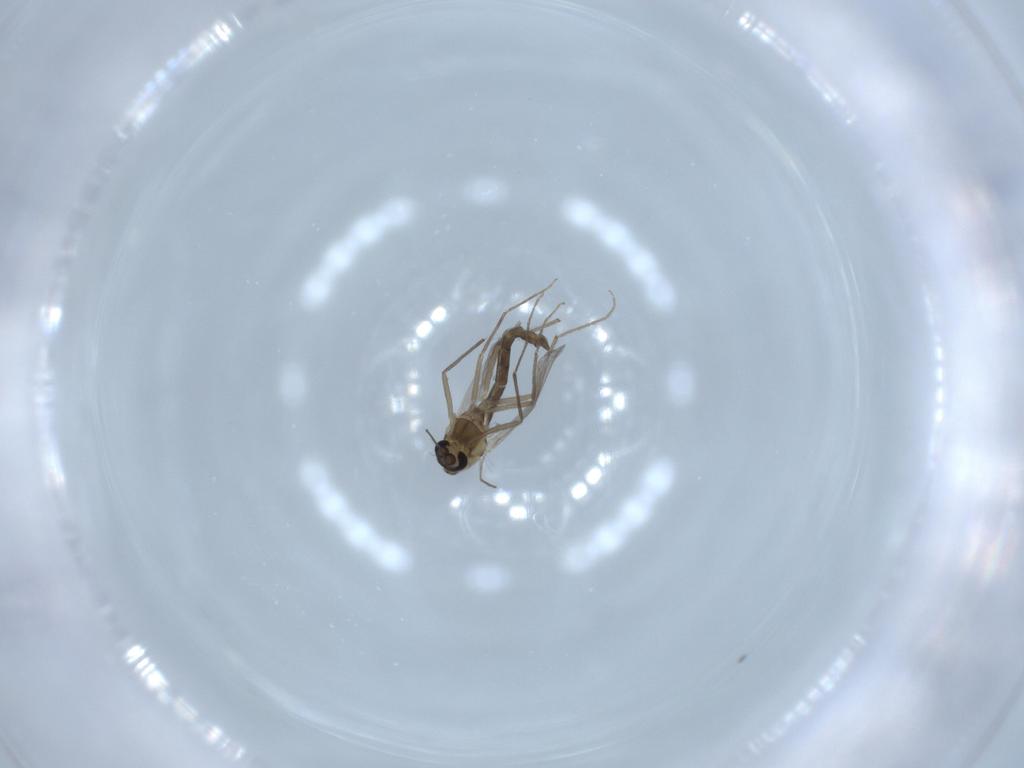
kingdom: Animalia
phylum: Arthropoda
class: Insecta
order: Diptera
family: Chironomidae
